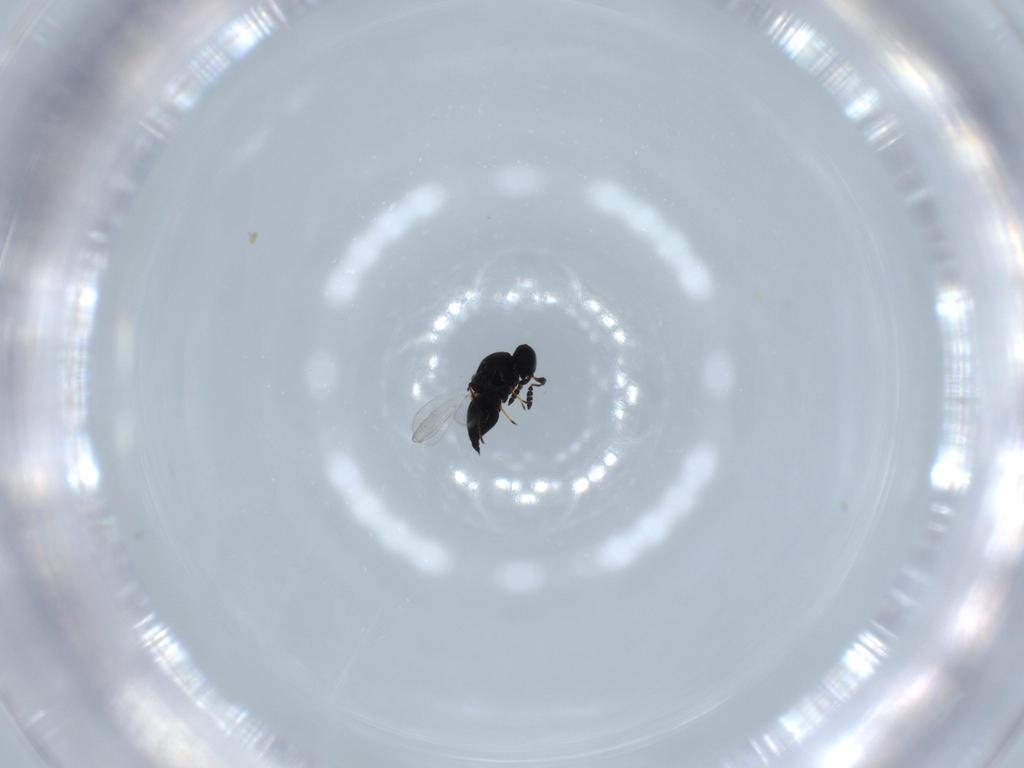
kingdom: Animalia
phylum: Arthropoda
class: Insecta
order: Hymenoptera
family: Platygastridae
